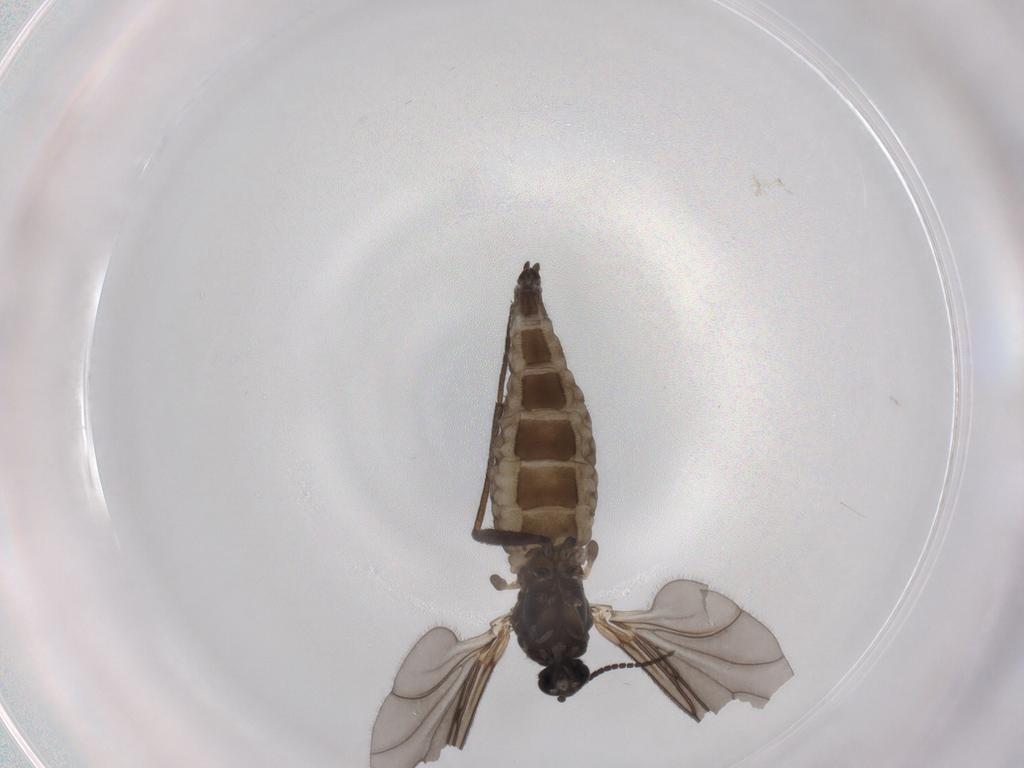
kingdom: Animalia
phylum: Arthropoda
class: Insecta
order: Diptera
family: Sciaridae
